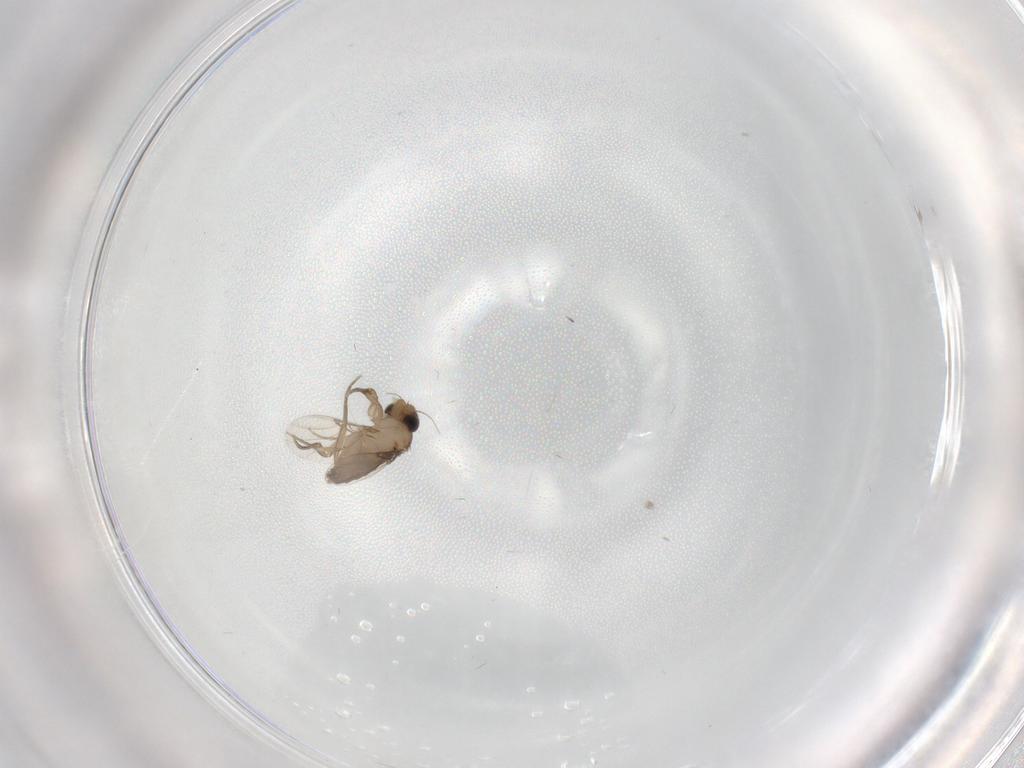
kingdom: Animalia
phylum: Arthropoda
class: Insecta
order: Diptera
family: Phoridae
